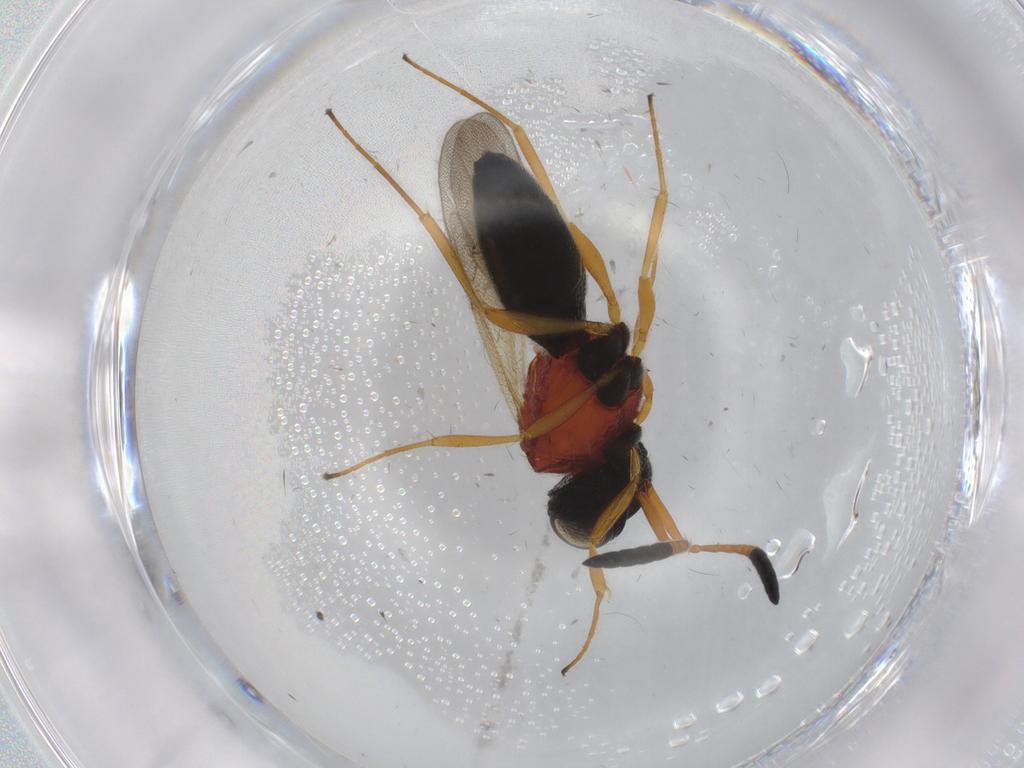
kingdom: Animalia
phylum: Arthropoda
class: Insecta
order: Hymenoptera
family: Scelionidae
